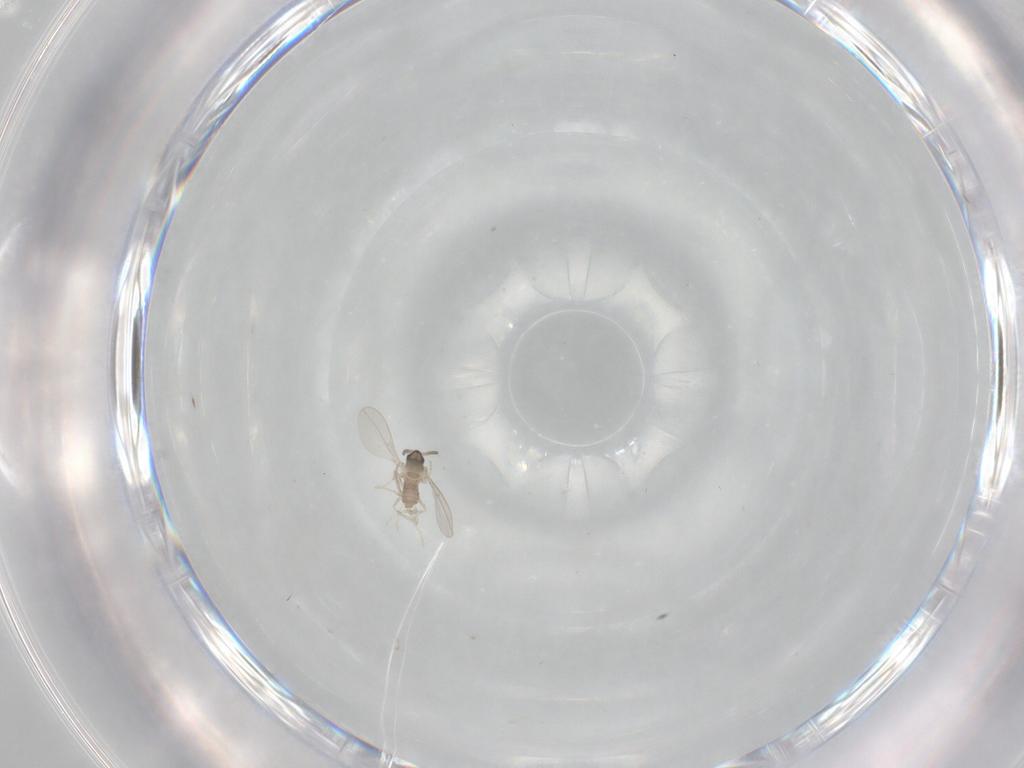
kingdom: Animalia
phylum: Arthropoda
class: Insecta
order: Diptera
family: Cecidomyiidae
